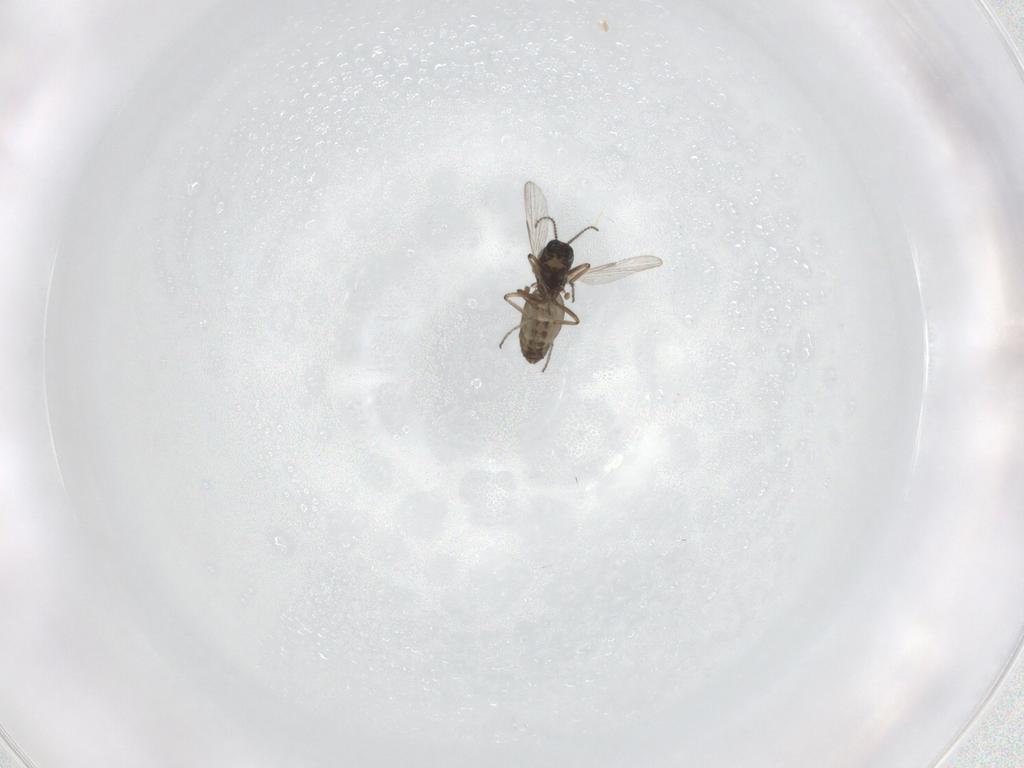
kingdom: Animalia
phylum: Arthropoda
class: Insecta
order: Diptera
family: Ceratopogonidae
